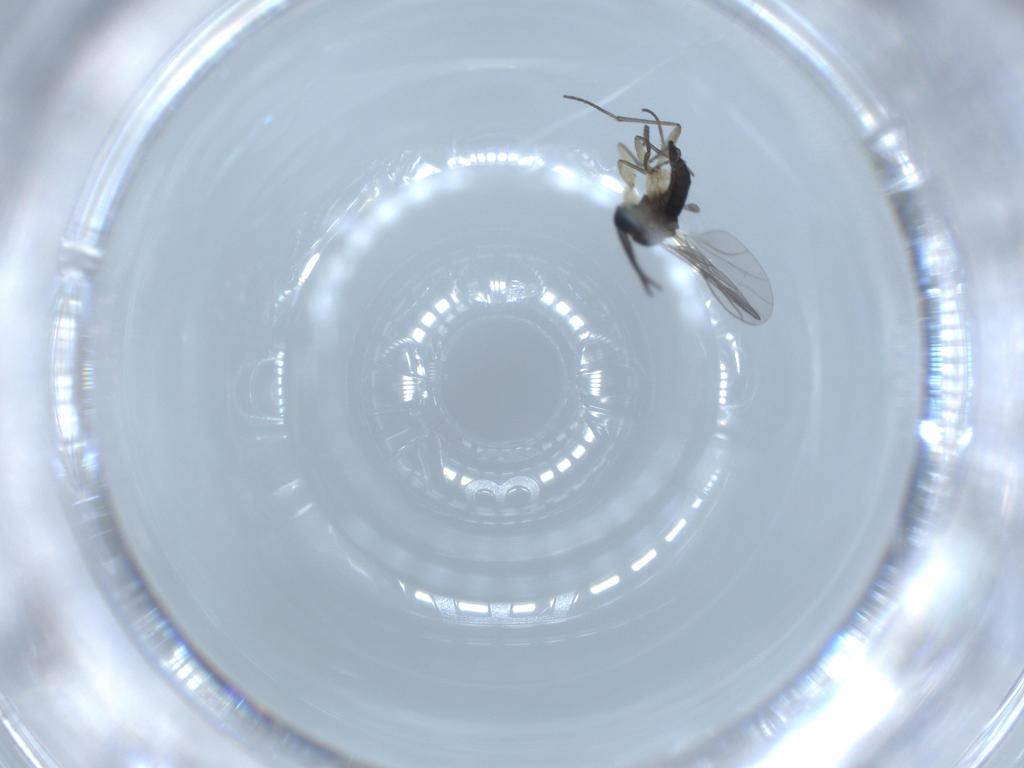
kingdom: Animalia
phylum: Arthropoda
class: Insecta
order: Diptera
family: Sciaridae
